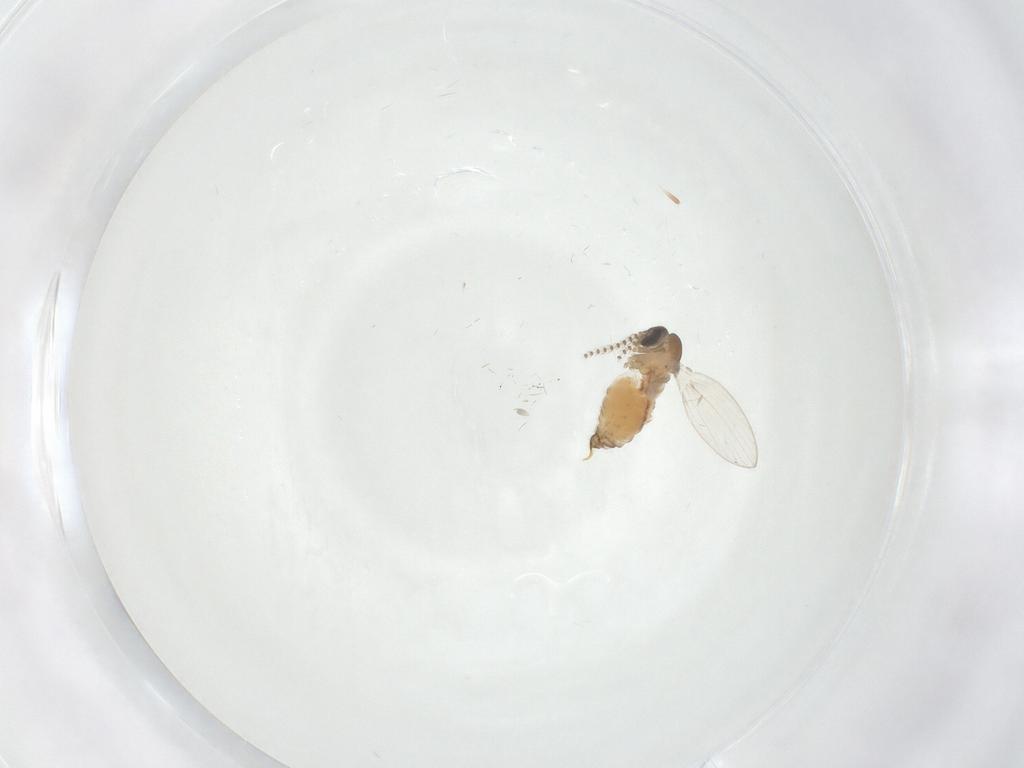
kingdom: Animalia
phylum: Arthropoda
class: Insecta
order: Diptera
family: Psychodidae
